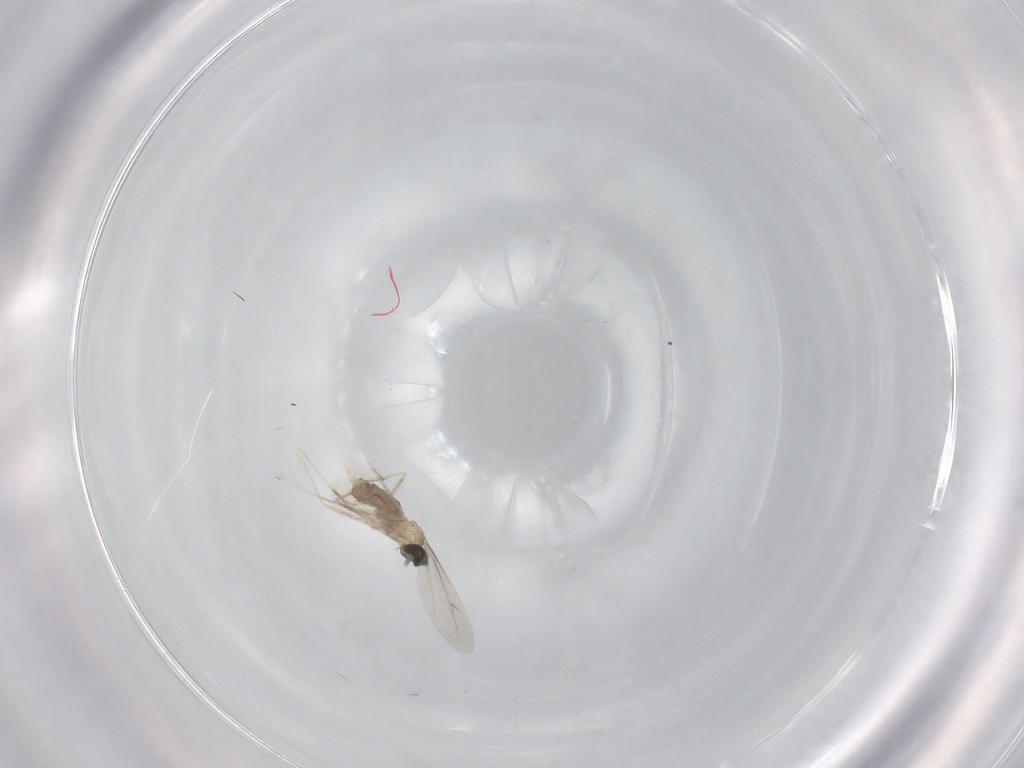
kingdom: Animalia
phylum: Arthropoda
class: Insecta
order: Diptera
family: Cecidomyiidae
